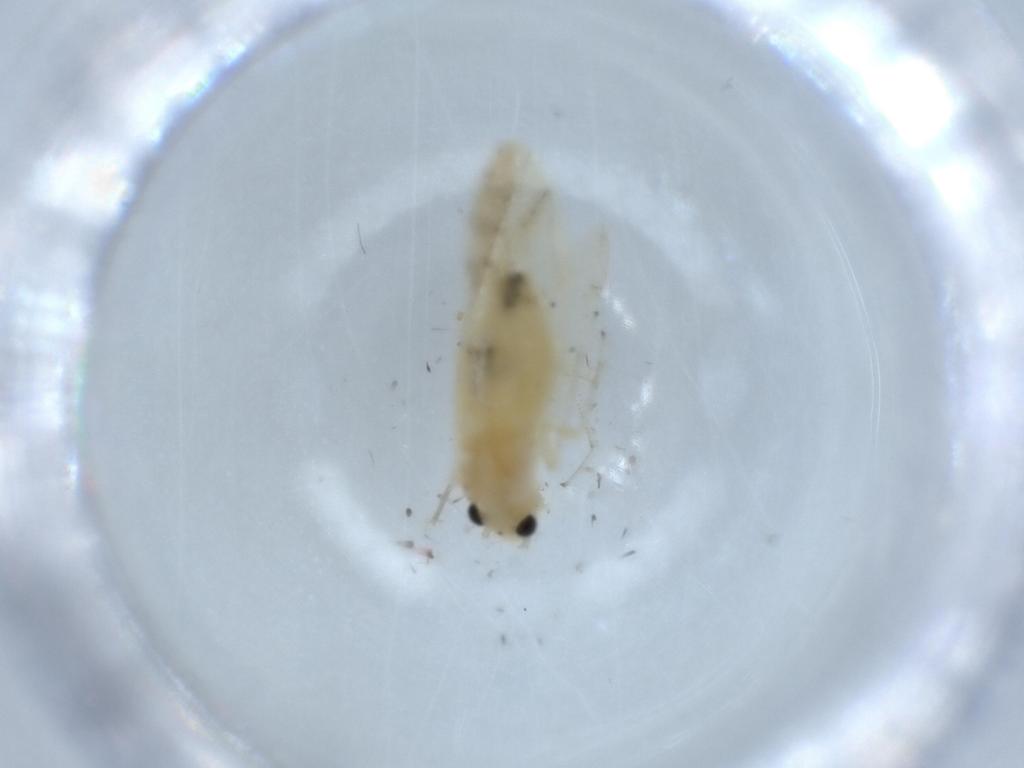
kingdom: Animalia
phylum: Arthropoda
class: Insecta
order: Psocodea
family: Caeciliusidae
